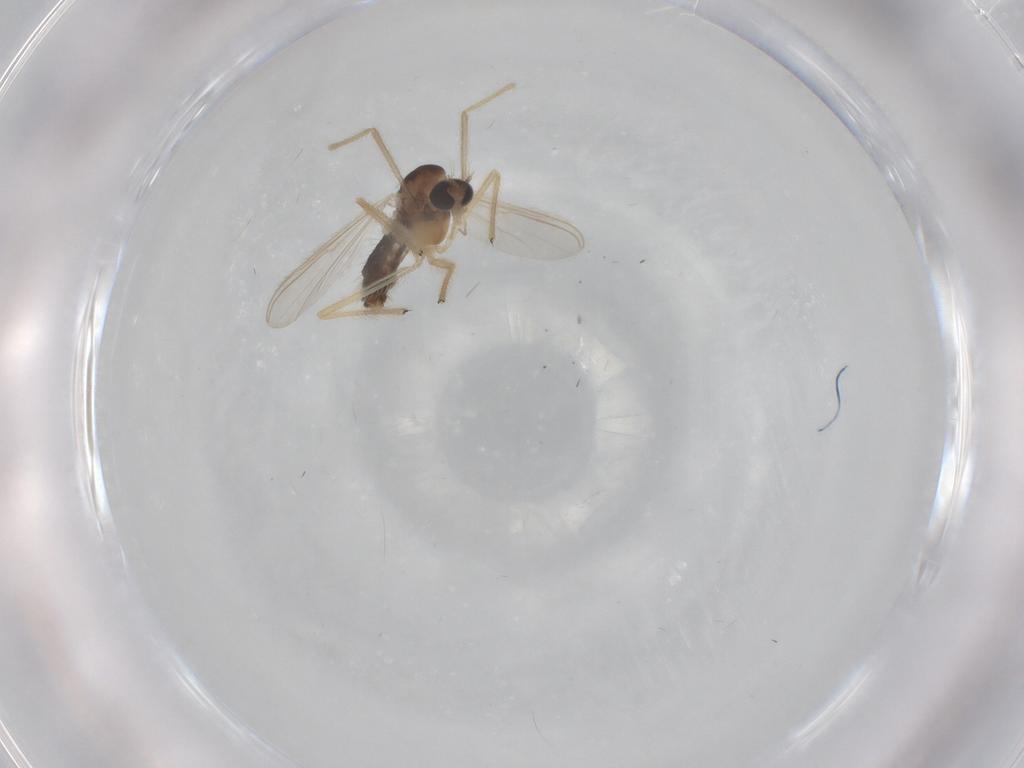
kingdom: Animalia
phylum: Arthropoda
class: Insecta
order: Diptera
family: Chironomidae
